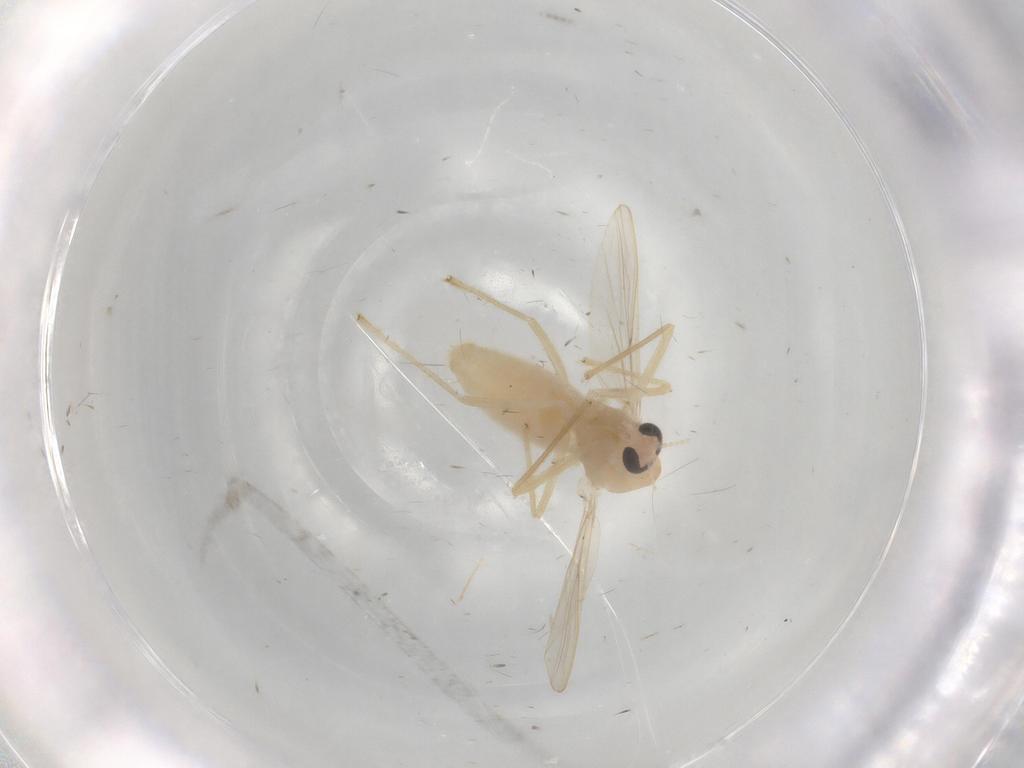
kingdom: Animalia
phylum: Arthropoda
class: Insecta
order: Diptera
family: Chironomidae
